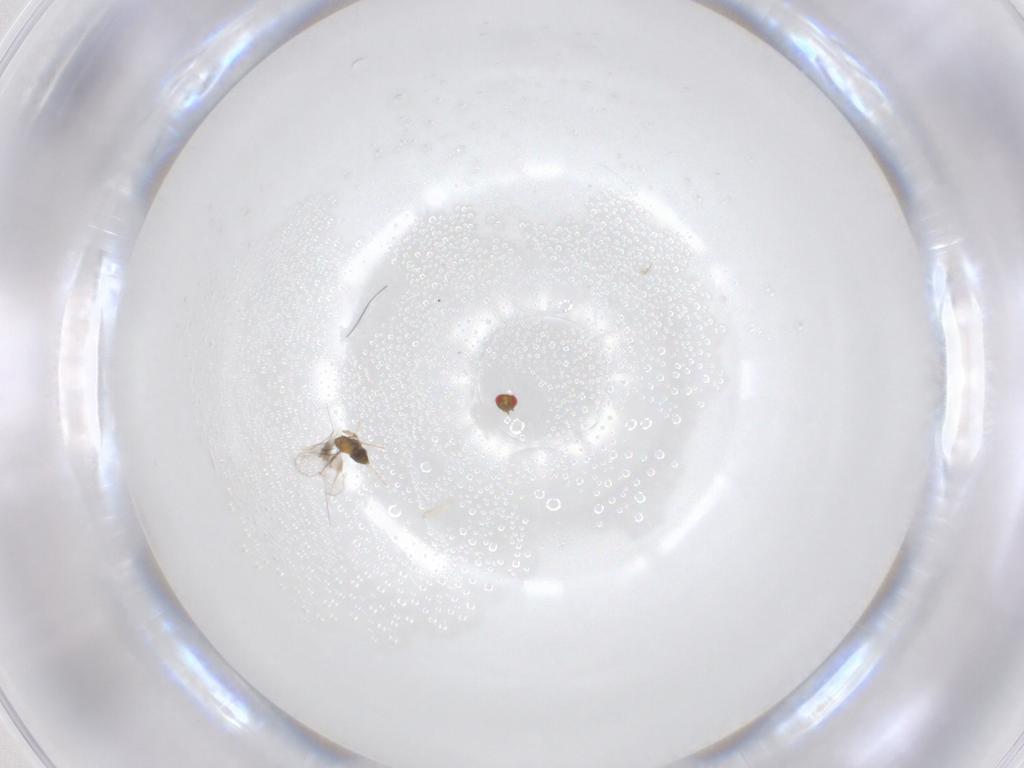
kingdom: Animalia
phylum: Arthropoda
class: Insecta
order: Hymenoptera
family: Trichogrammatidae
